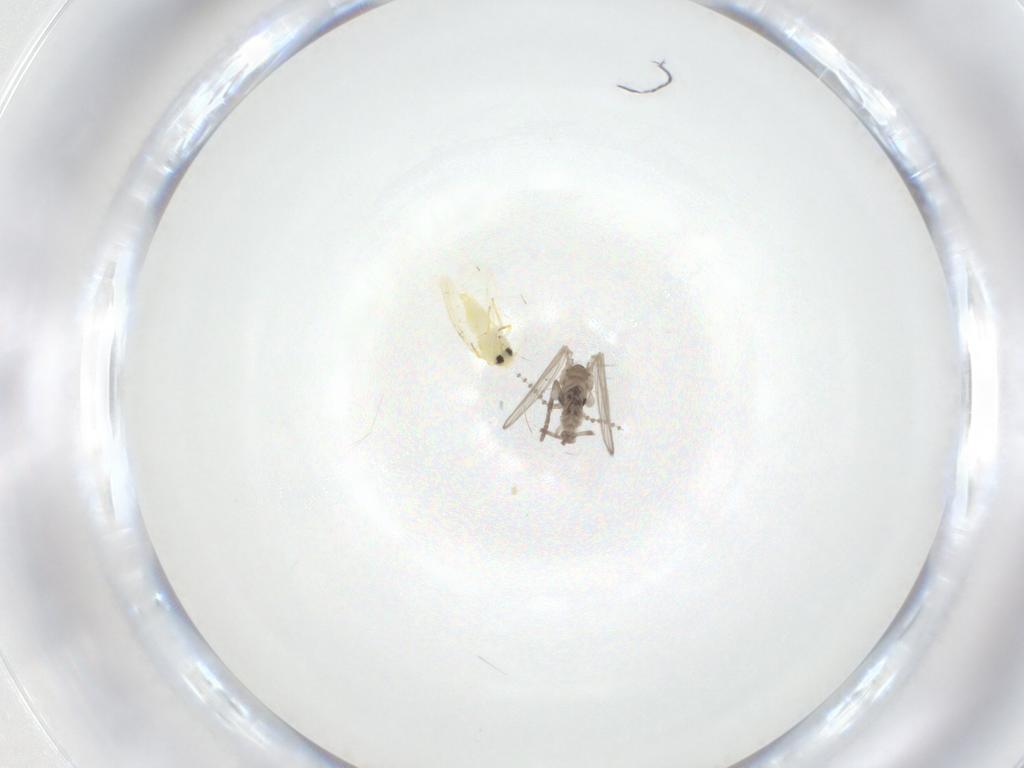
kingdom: Animalia
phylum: Arthropoda
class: Insecta
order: Diptera
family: Psychodidae
